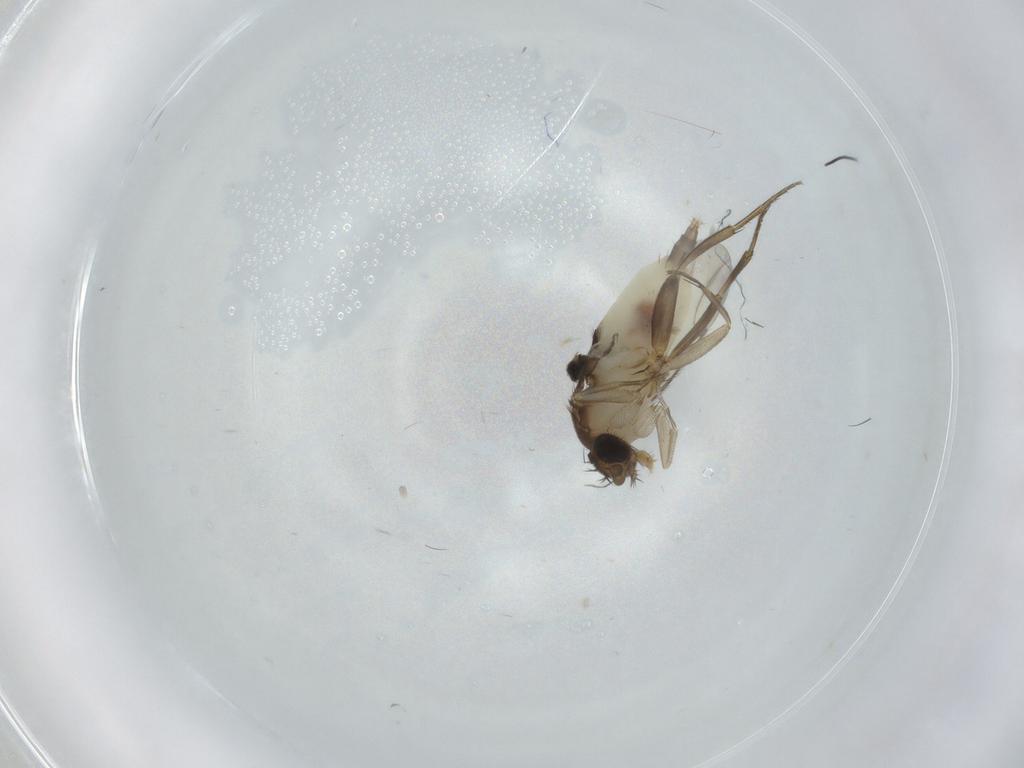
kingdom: Animalia
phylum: Arthropoda
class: Insecta
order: Diptera
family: Phoridae
